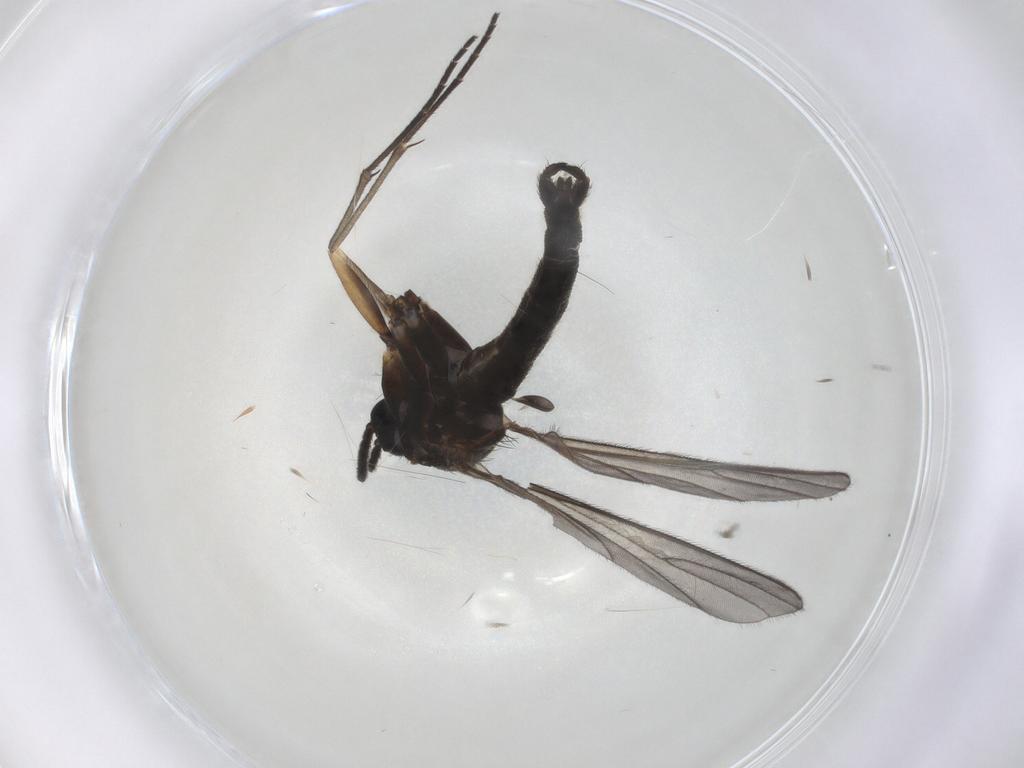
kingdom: Animalia
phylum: Arthropoda
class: Insecta
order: Diptera
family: Sciaridae
